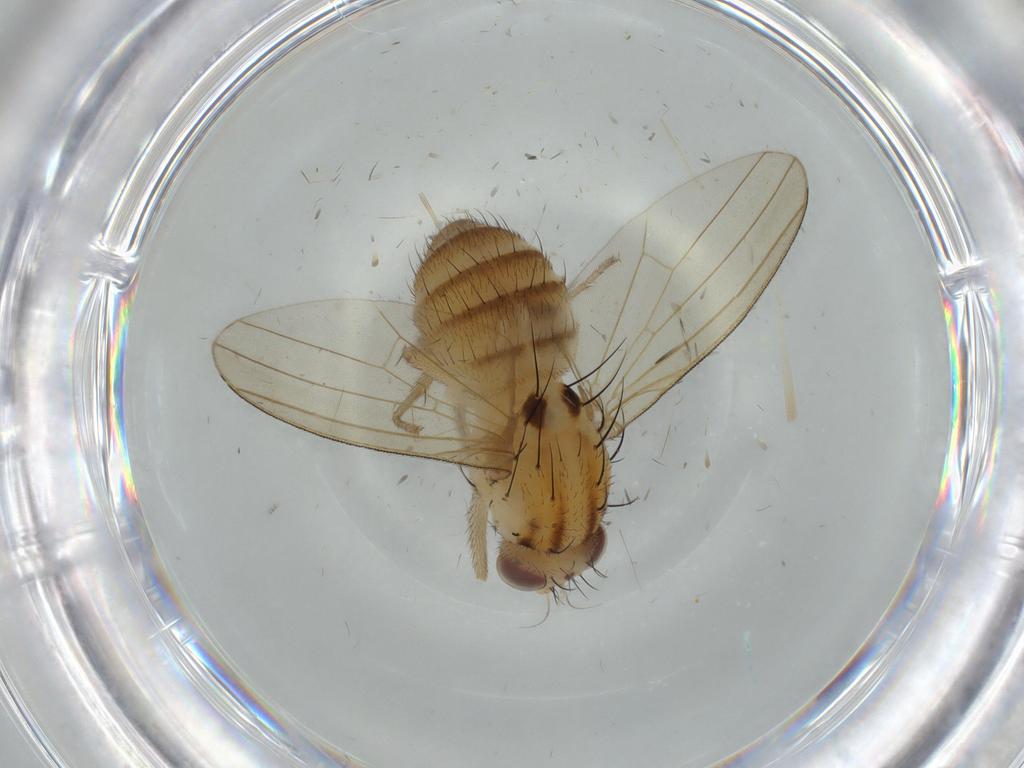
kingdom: Animalia
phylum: Arthropoda
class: Insecta
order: Diptera
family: Lauxaniidae
